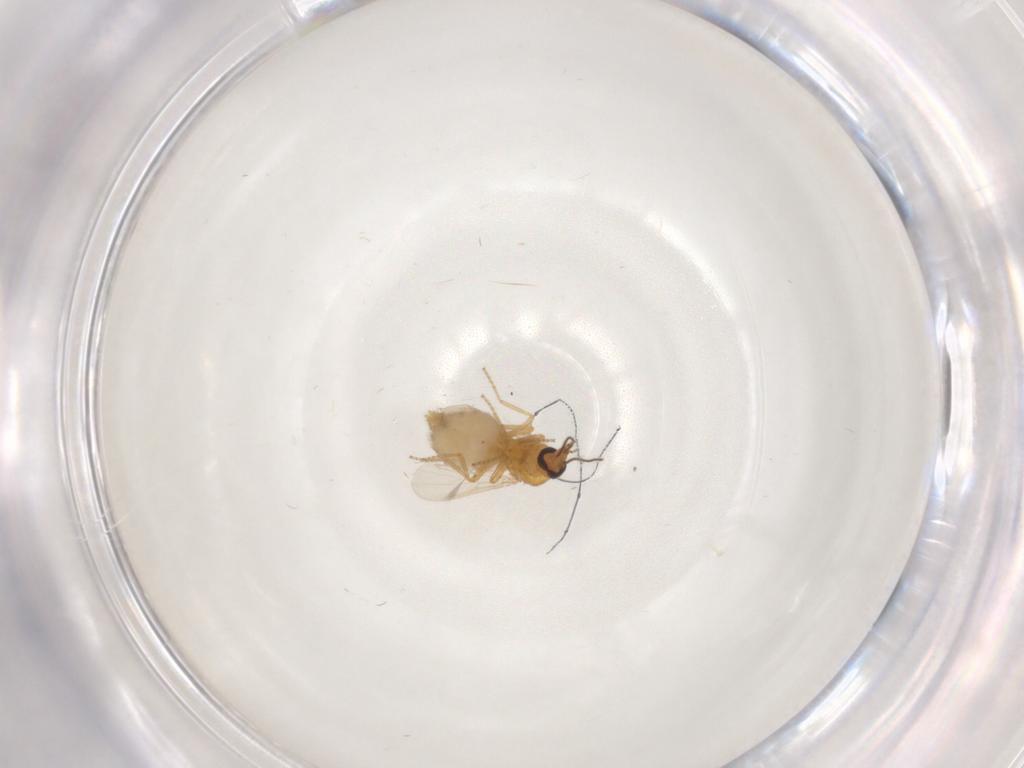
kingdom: Animalia
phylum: Arthropoda
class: Insecta
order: Diptera
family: Ceratopogonidae
